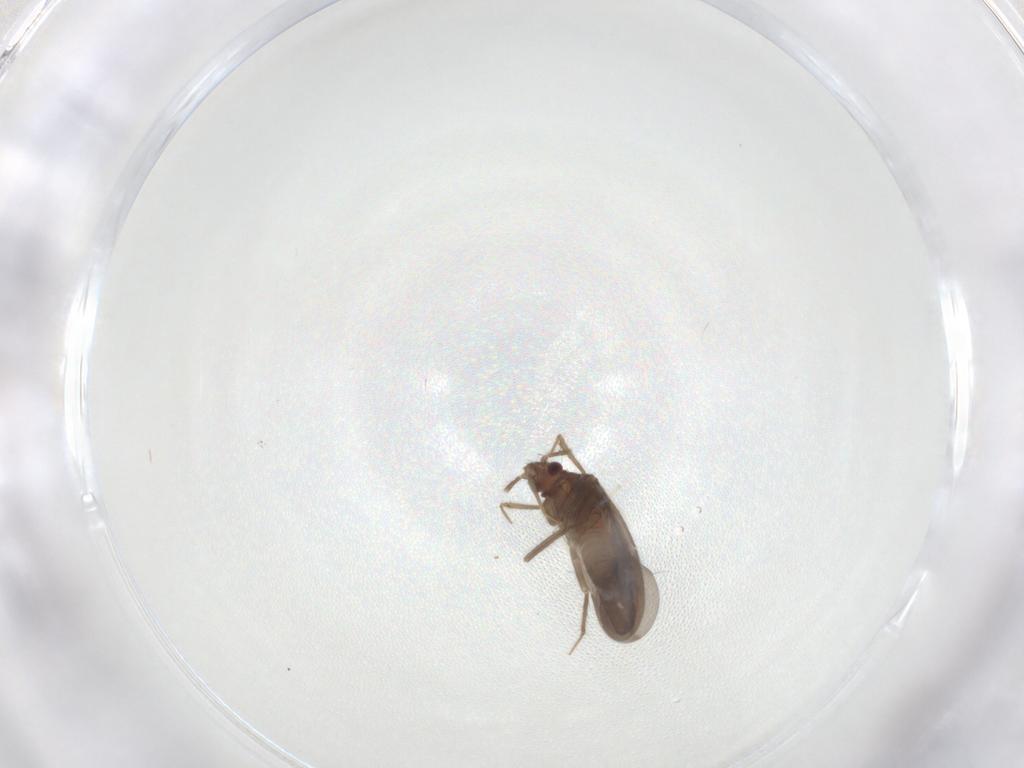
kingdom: Animalia
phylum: Arthropoda
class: Insecta
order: Hemiptera
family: Ceratocombidae
